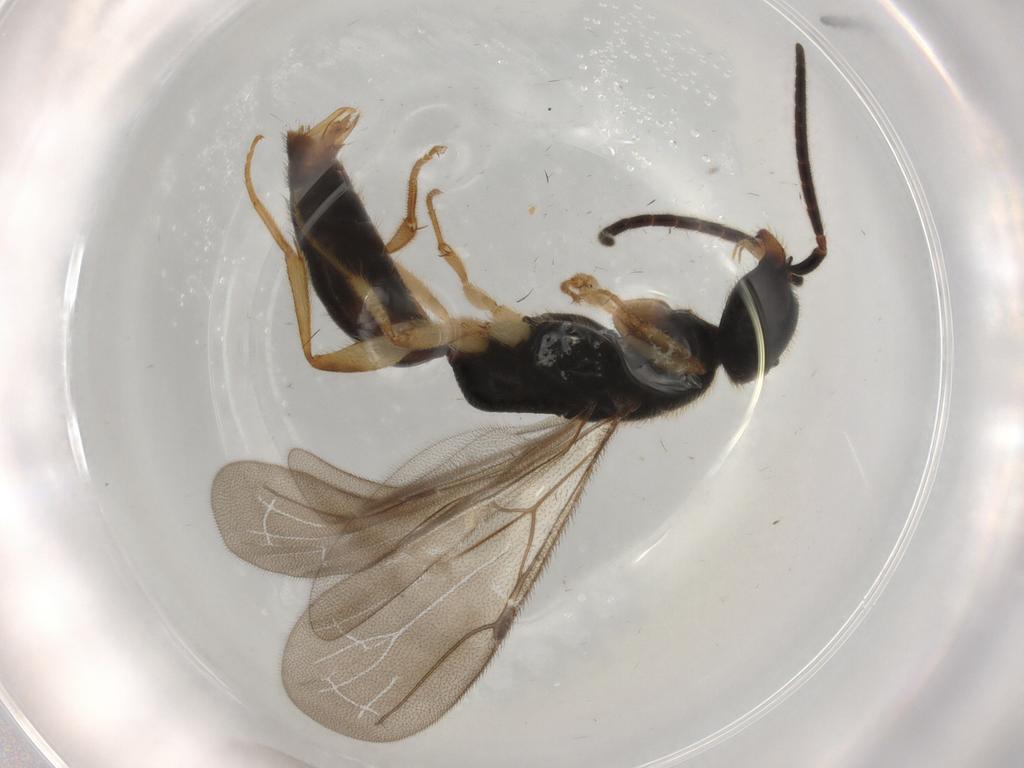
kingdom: Animalia
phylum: Arthropoda
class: Insecta
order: Hymenoptera
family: Bethylidae
